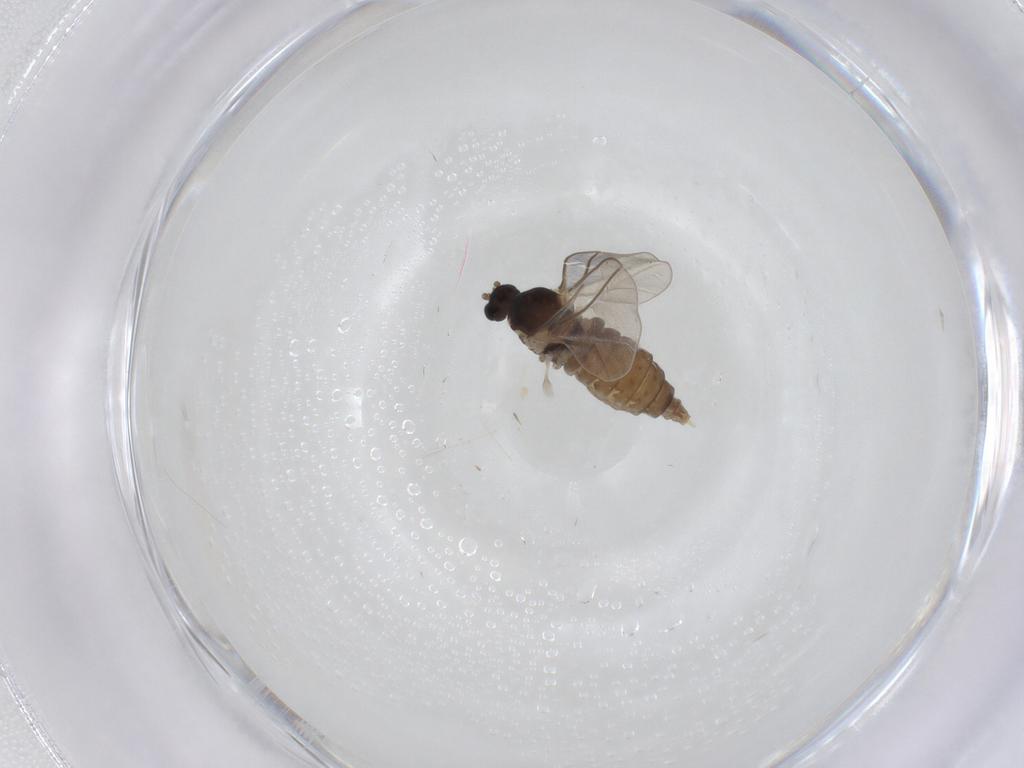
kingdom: Animalia
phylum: Arthropoda
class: Insecta
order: Diptera
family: Cecidomyiidae
